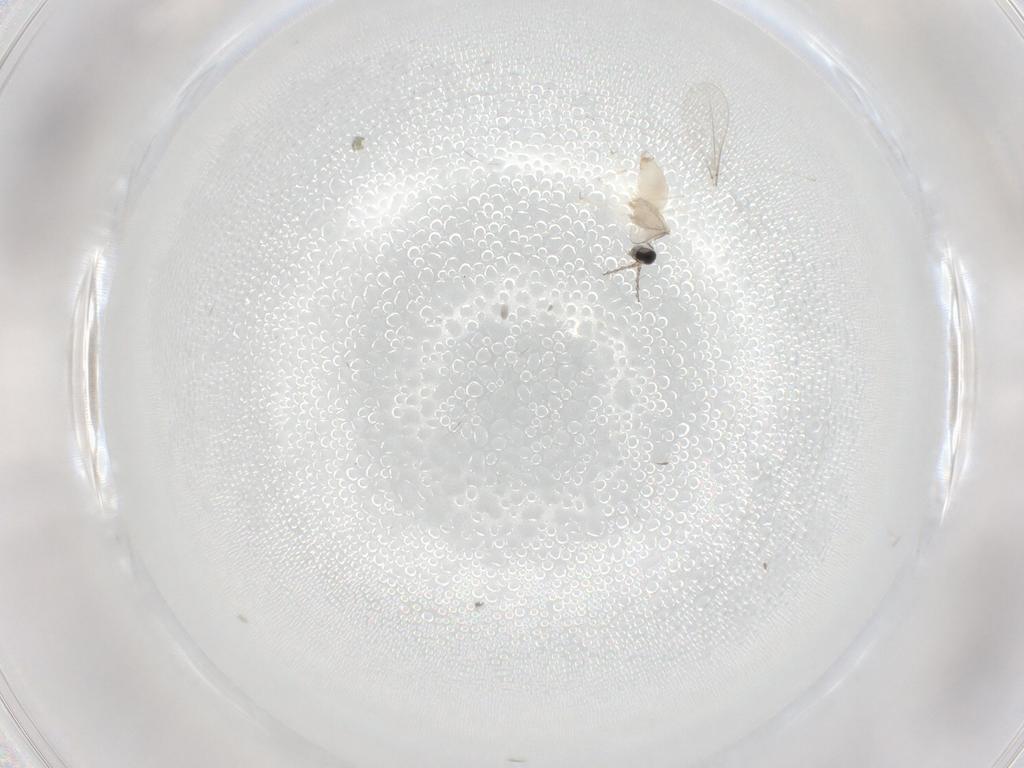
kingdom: Animalia
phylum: Arthropoda
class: Insecta
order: Diptera
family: Cecidomyiidae
